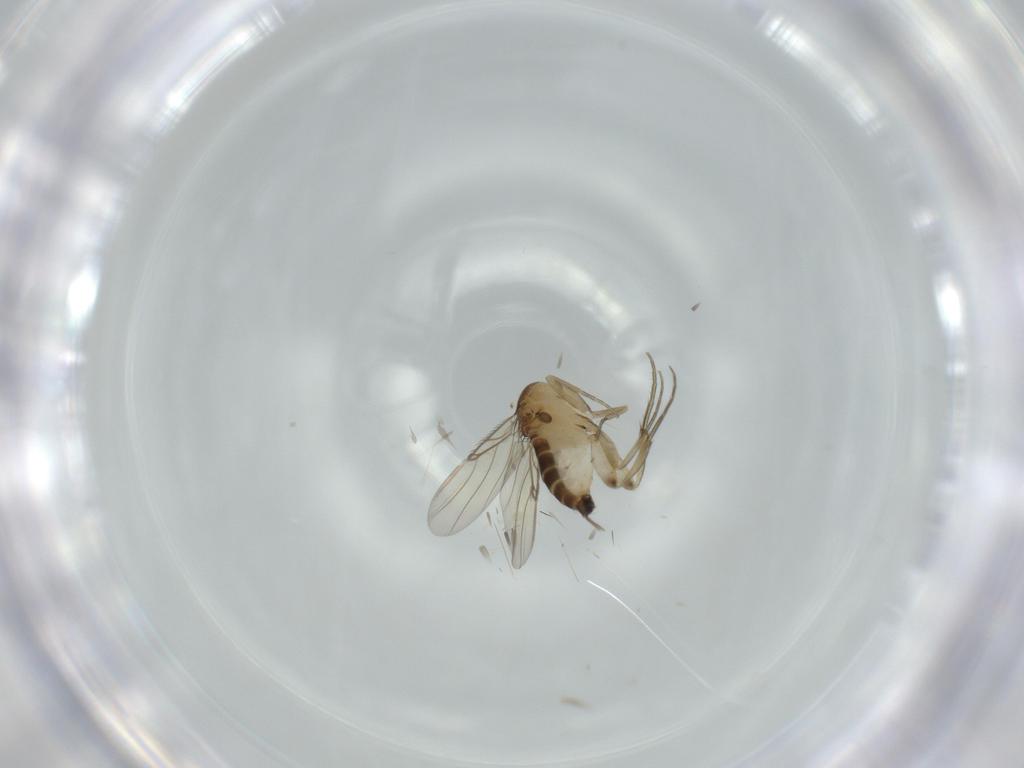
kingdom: Animalia
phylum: Arthropoda
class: Insecta
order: Diptera
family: Phoridae
